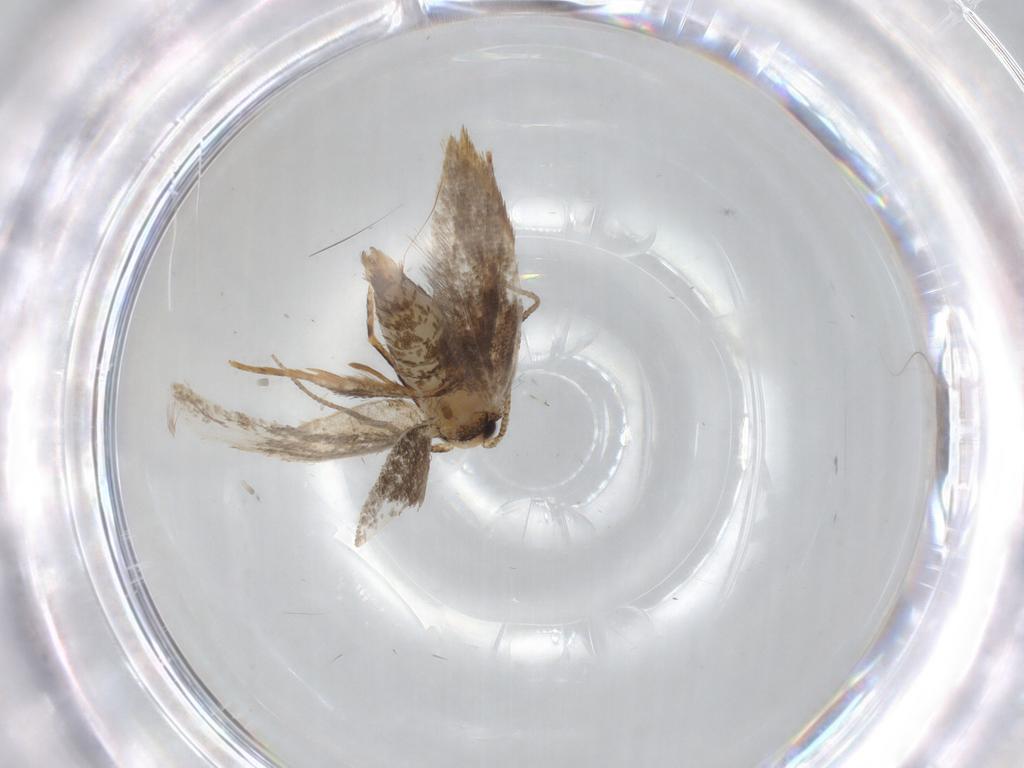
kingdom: Animalia
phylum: Arthropoda
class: Insecta
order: Lepidoptera
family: Tineidae
